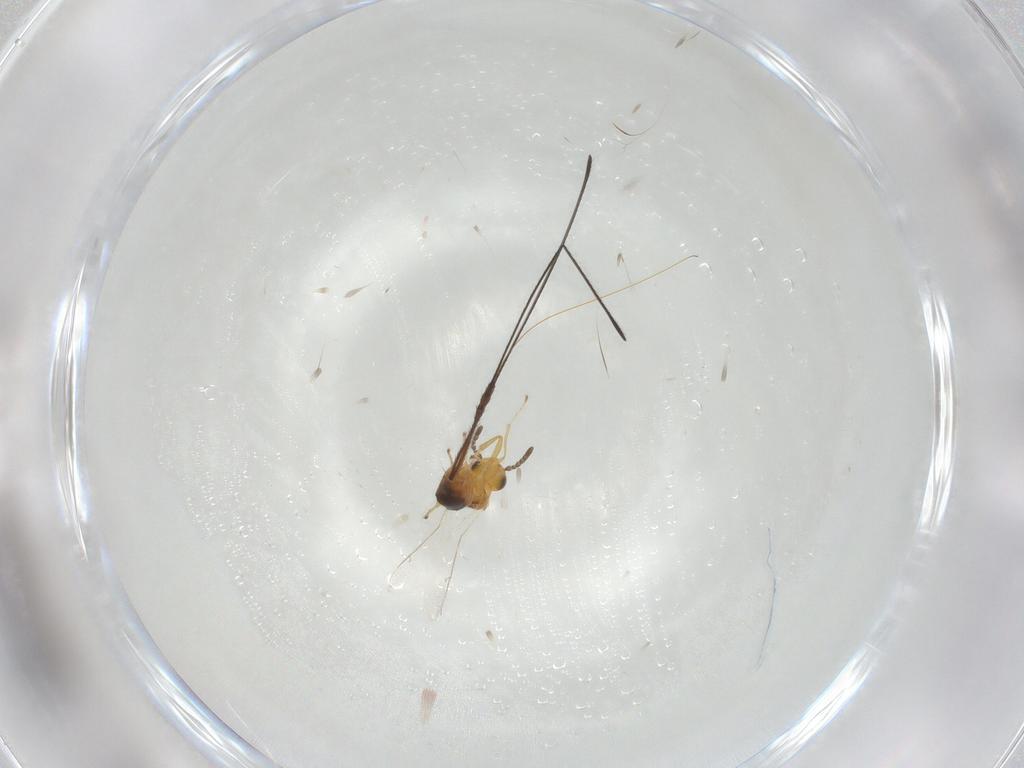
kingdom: Animalia
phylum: Arthropoda
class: Insecta
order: Hymenoptera
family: Pteromalidae
